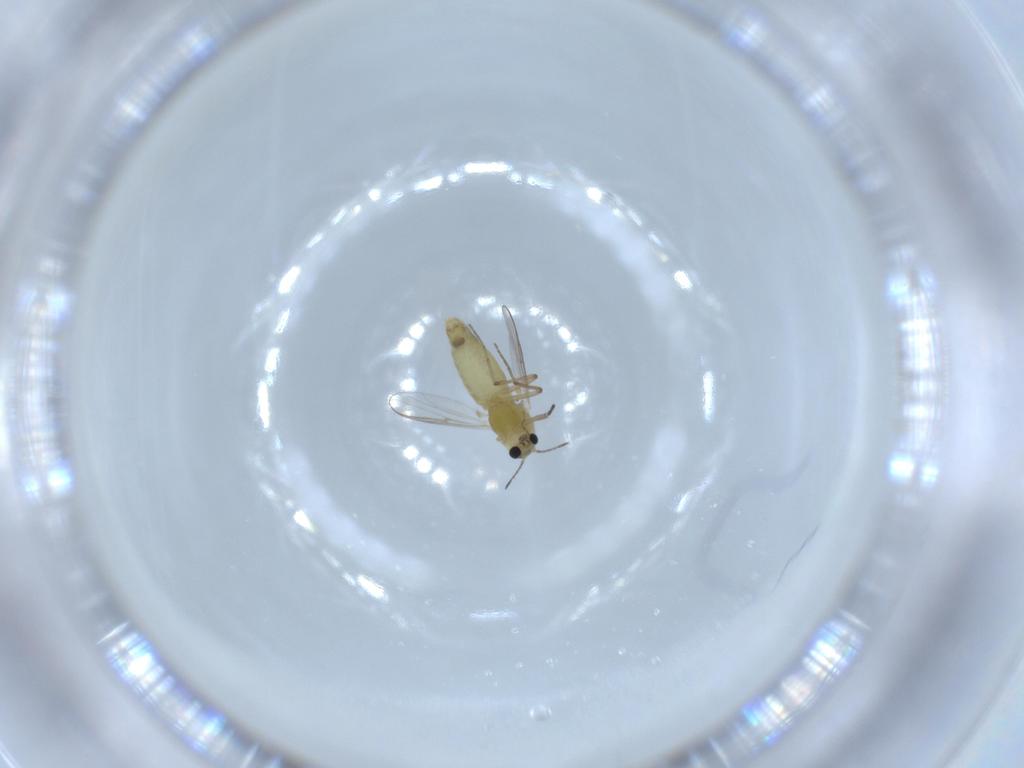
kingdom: Animalia
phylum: Arthropoda
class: Insecta
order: Diptera
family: Chironomidae
